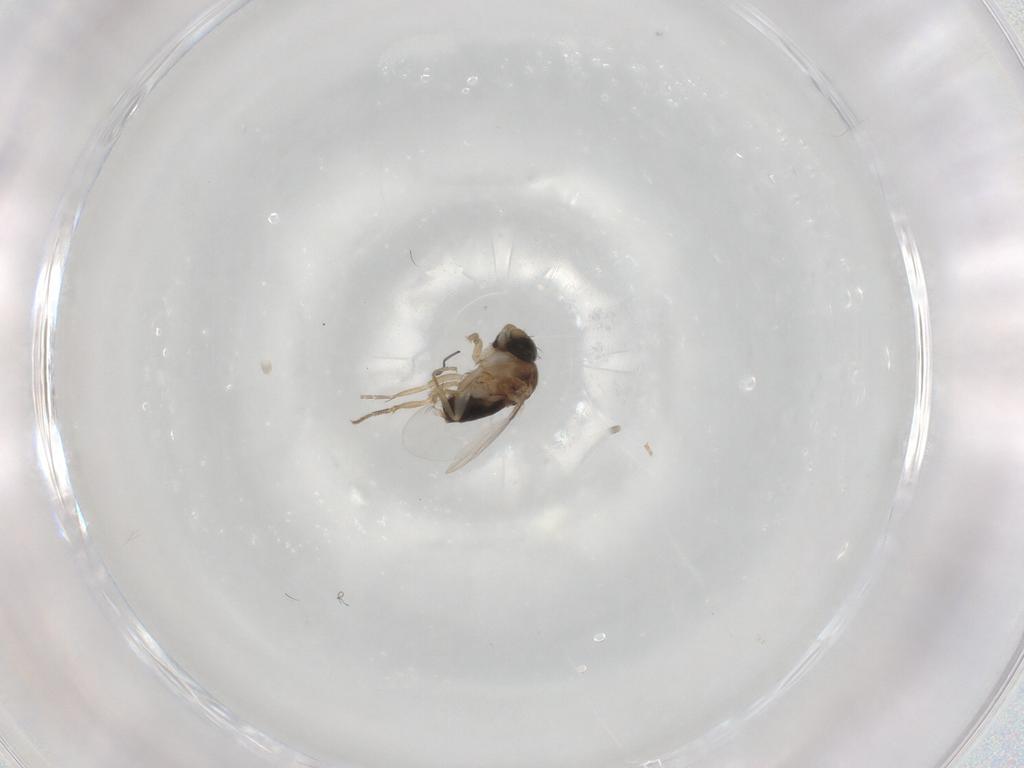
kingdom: Animalia
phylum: Arthropoda
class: Insecta
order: Diptera
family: Phoridae
